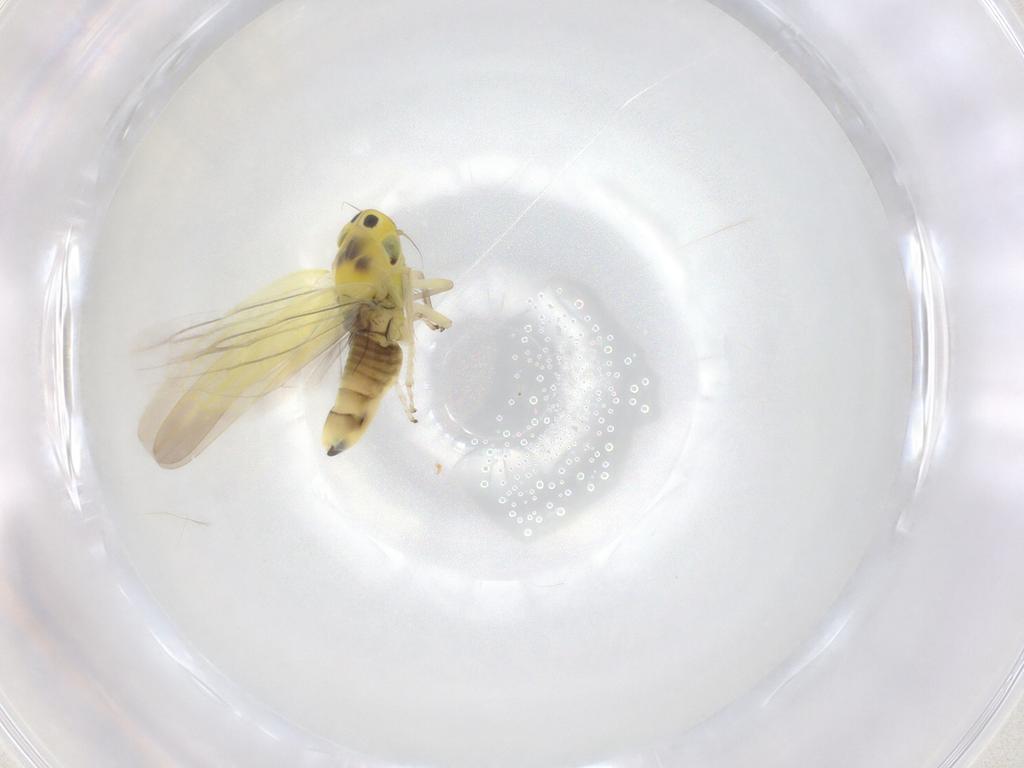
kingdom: Animalia
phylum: Arthropoda
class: Insecta
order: Hemiptera
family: Cicadellidae
